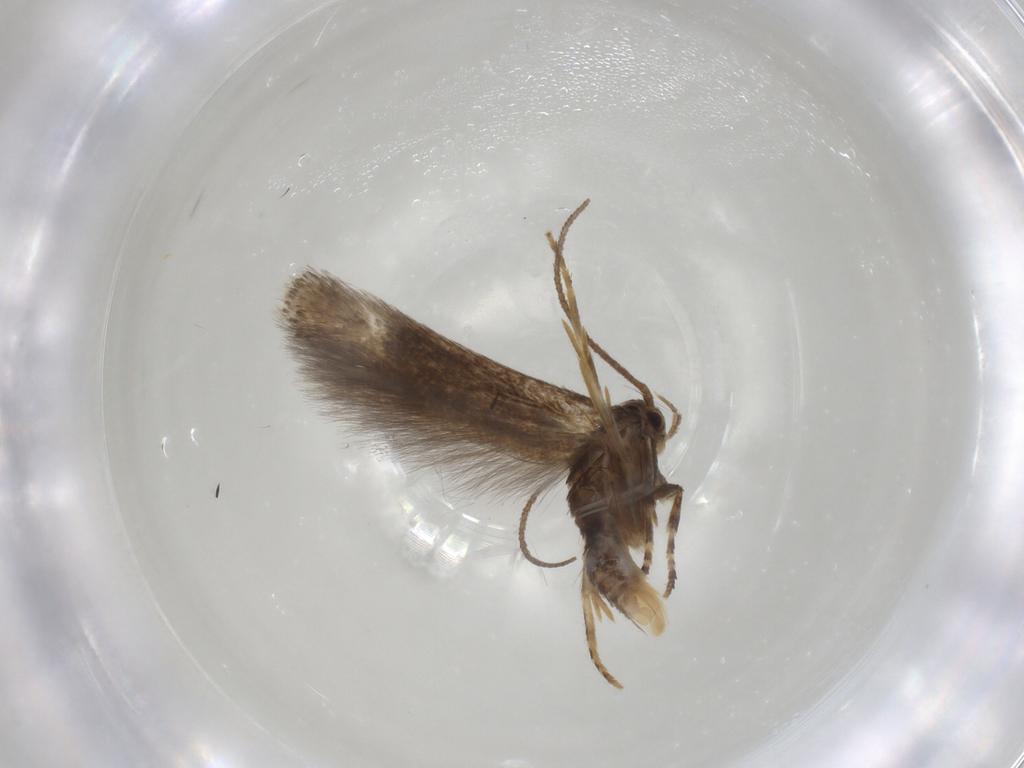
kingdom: Animalia
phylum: Arthropoda
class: Insecta
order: Lepidoptera
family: Elachistidae
